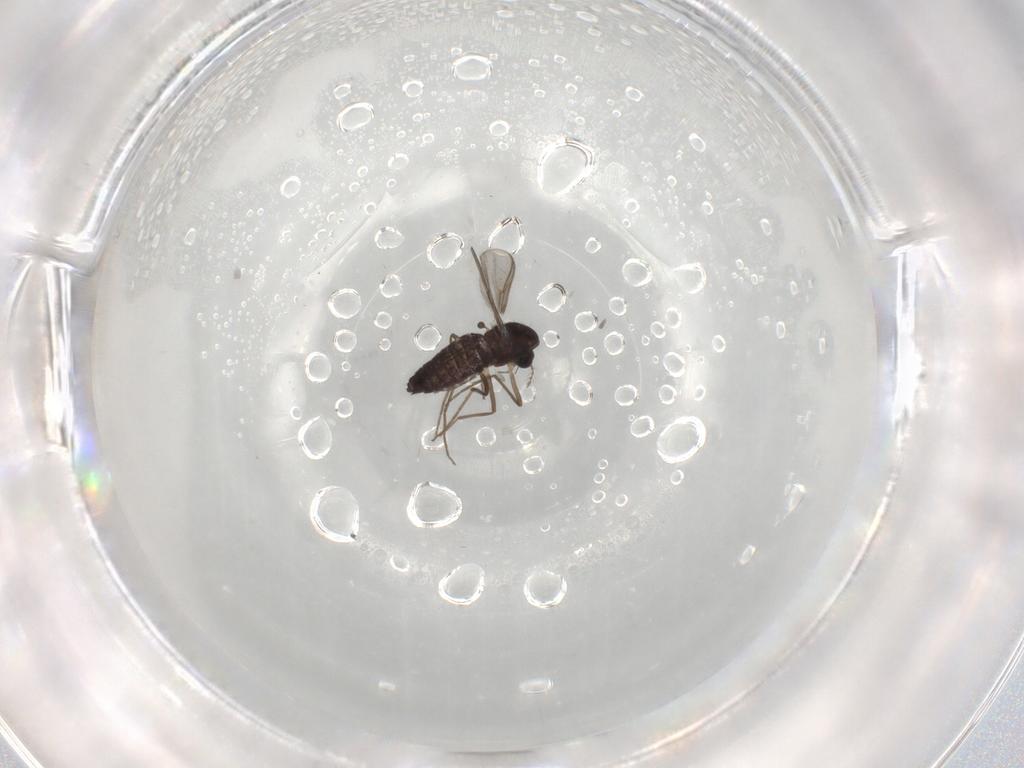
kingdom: Animalia
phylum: Arthropoda
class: Insecta
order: Diptera
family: Chironomidae
